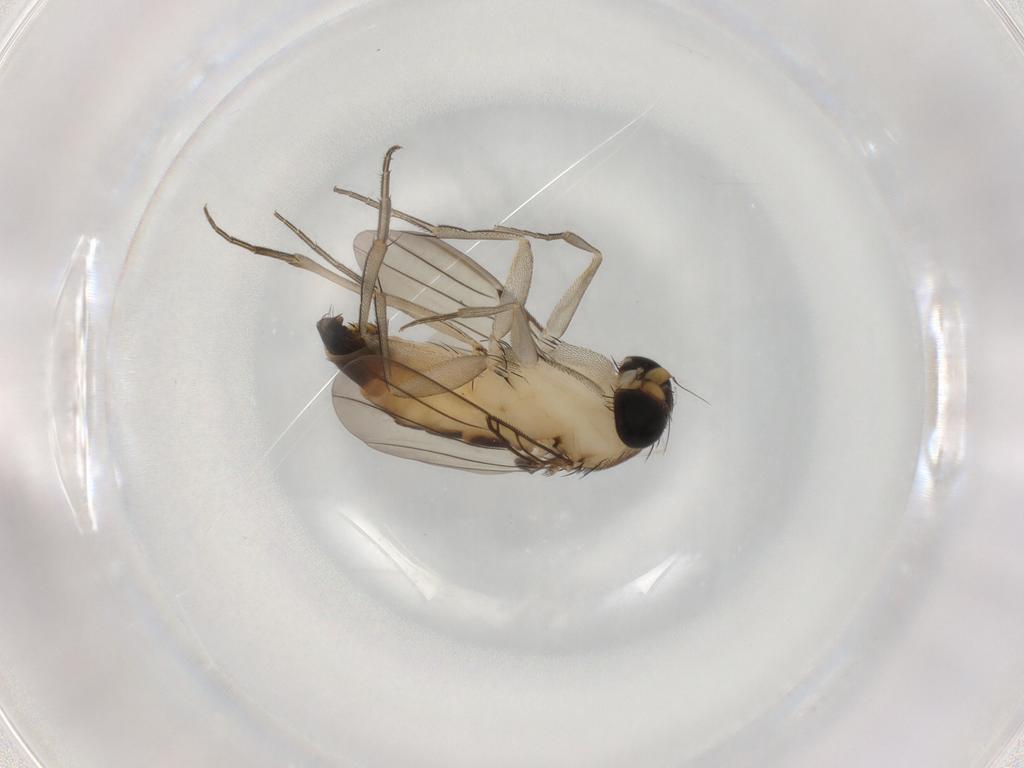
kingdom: Animalia
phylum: Arthropoda
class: Insecta
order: Diptera
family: Phoridae
